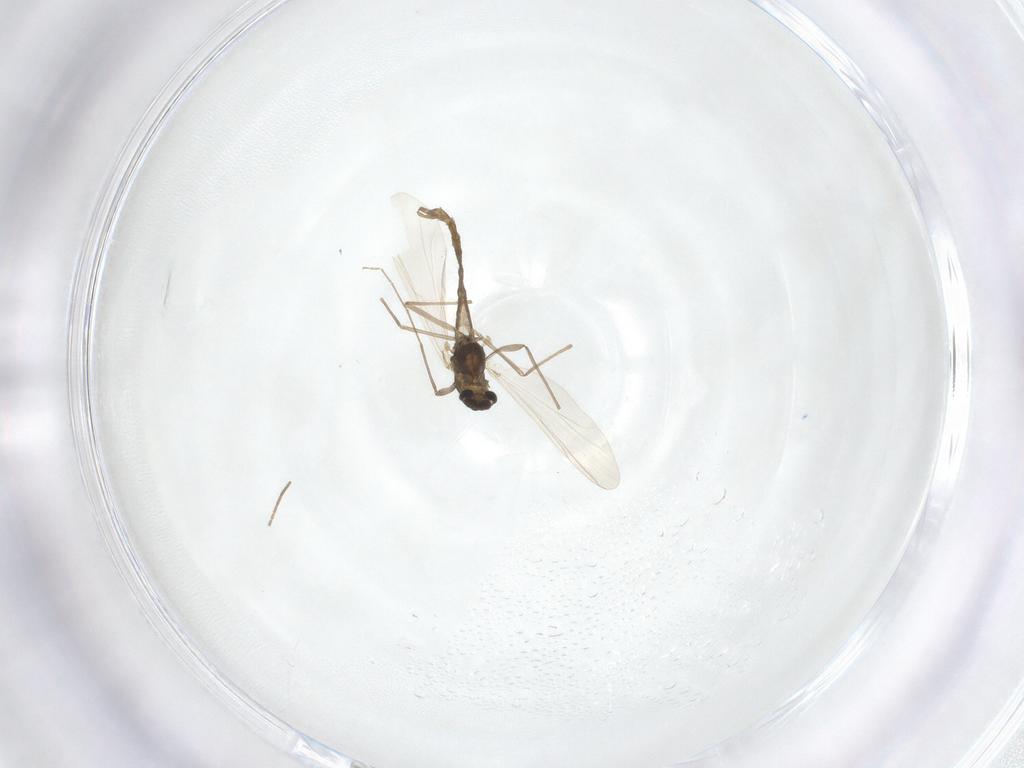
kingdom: Animalia
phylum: Arthropoda
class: Insecta
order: Diptera
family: Chironomidae
